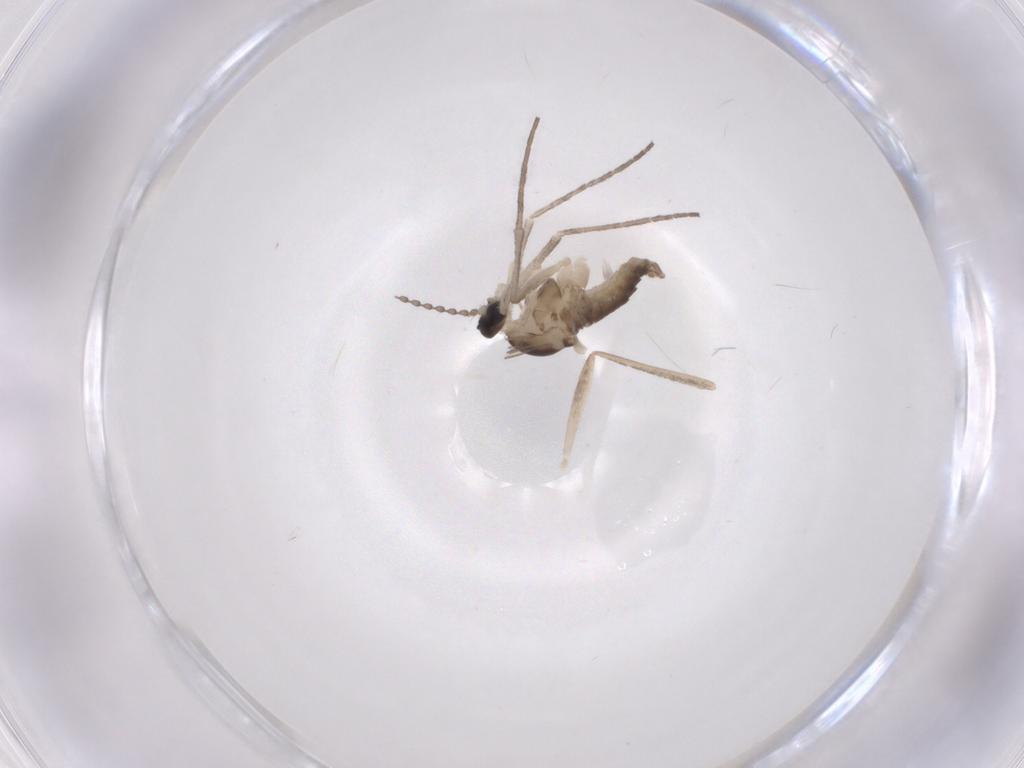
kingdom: Animalia
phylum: Arthropoda
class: Insecta
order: Diptera
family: Cecidomyiidae
